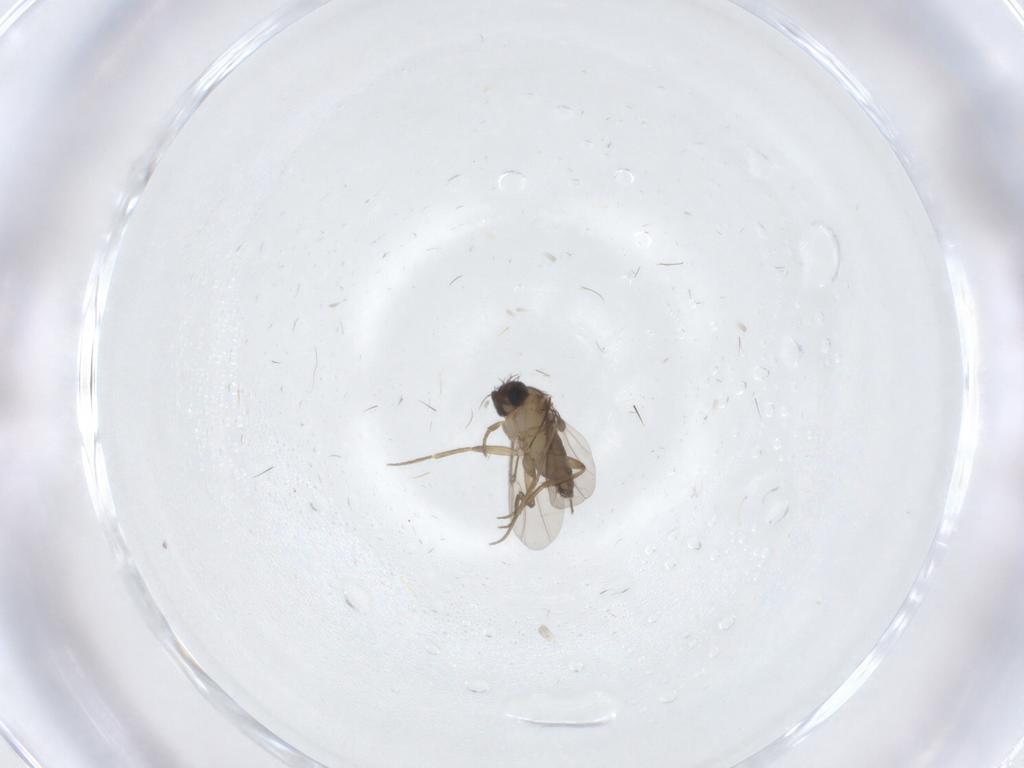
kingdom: Animalia
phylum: Arthropoda
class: Insecta
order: Diptera
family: Phoridae
